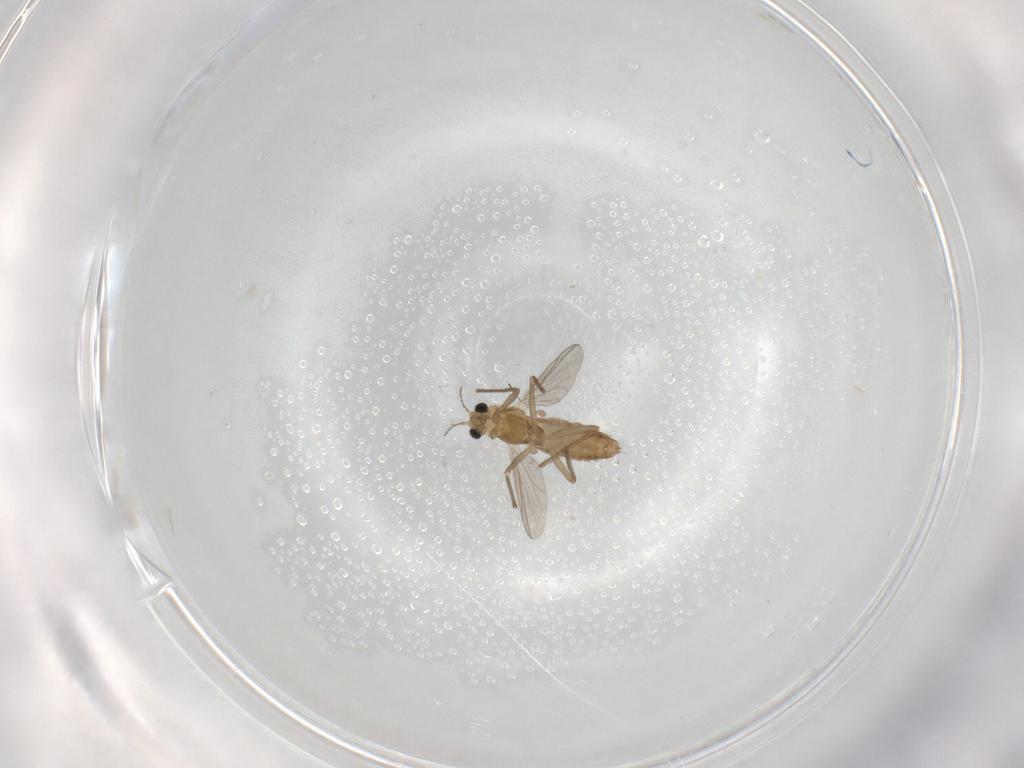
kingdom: Animalia
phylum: Arthropoda
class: Insecta
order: Diptera
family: Chironomidae
